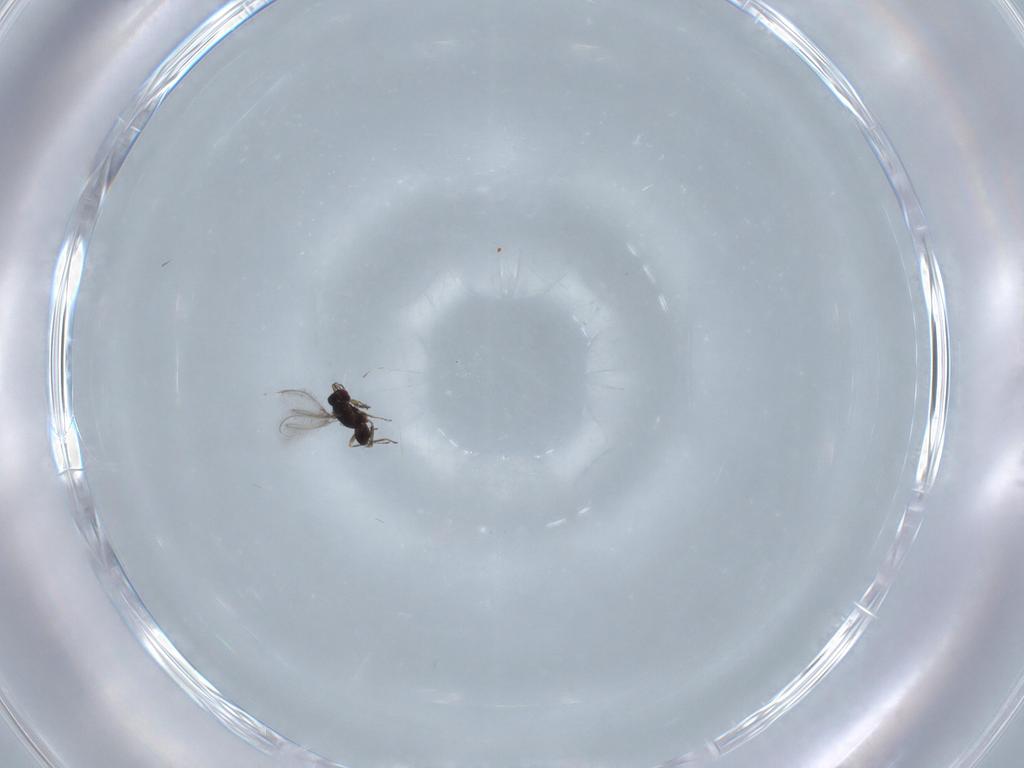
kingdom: Animalia
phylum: Arthropoda
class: Insecta
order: Hymenoptera
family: Mymaridae
